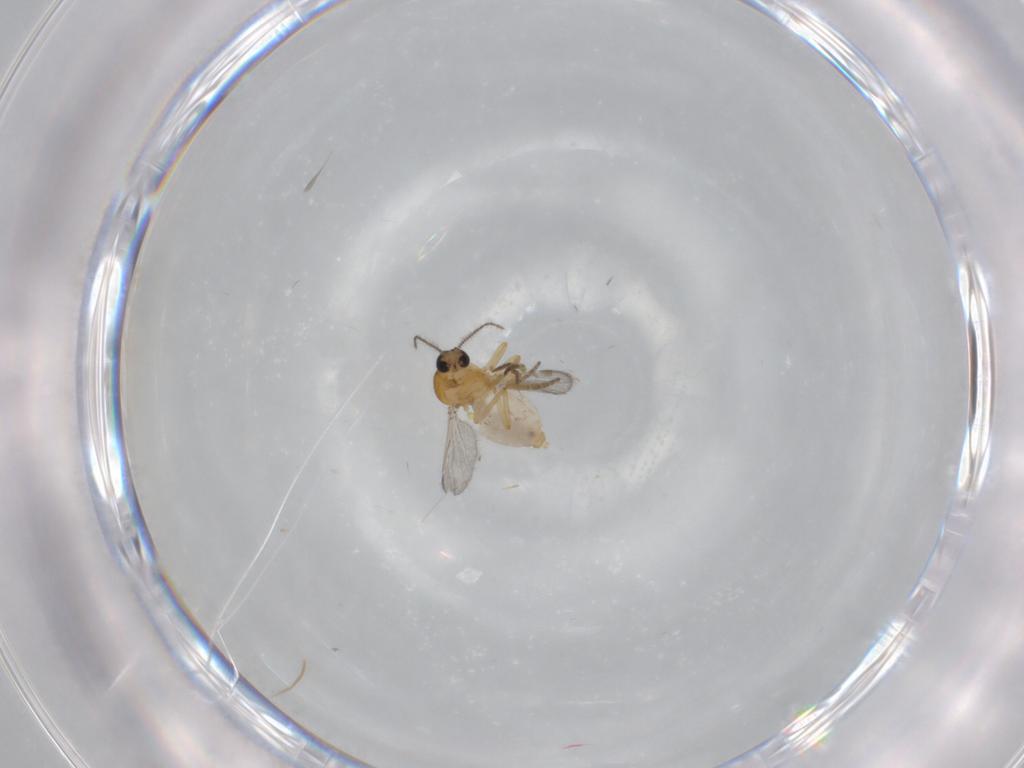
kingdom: Animalia
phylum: Arthropoda
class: Insecta
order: Diptera
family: Ceratopogonidae
